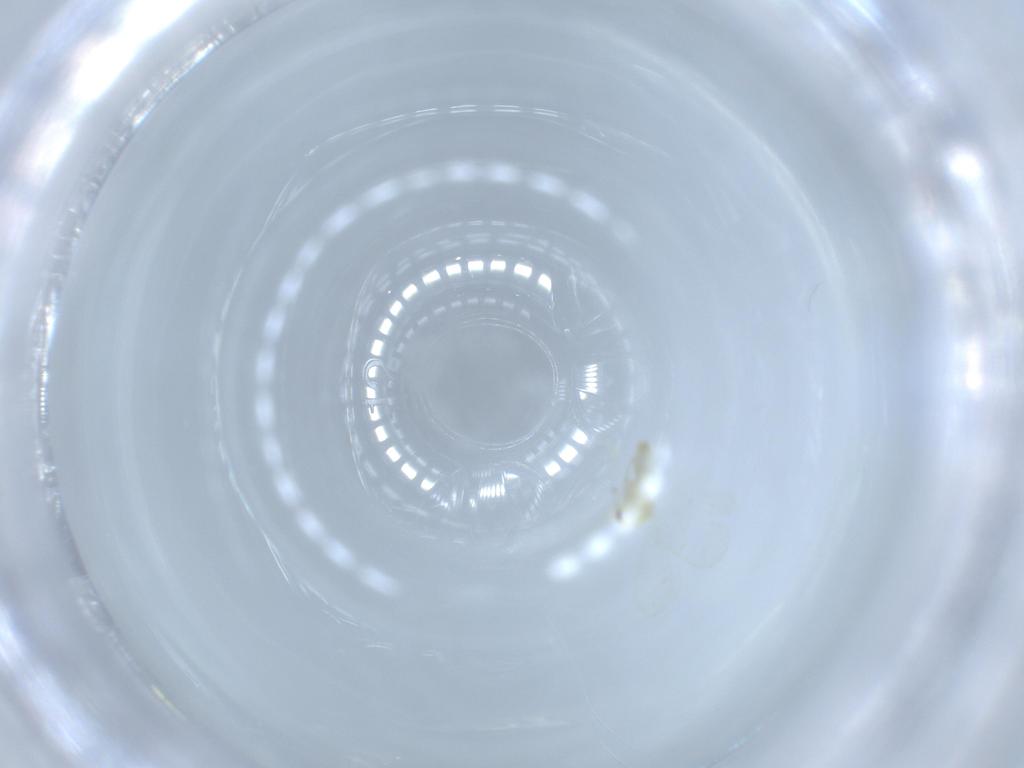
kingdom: Animalia
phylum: Arthropoda
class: Insecta
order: Hemiptera
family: Aleyrodidae
